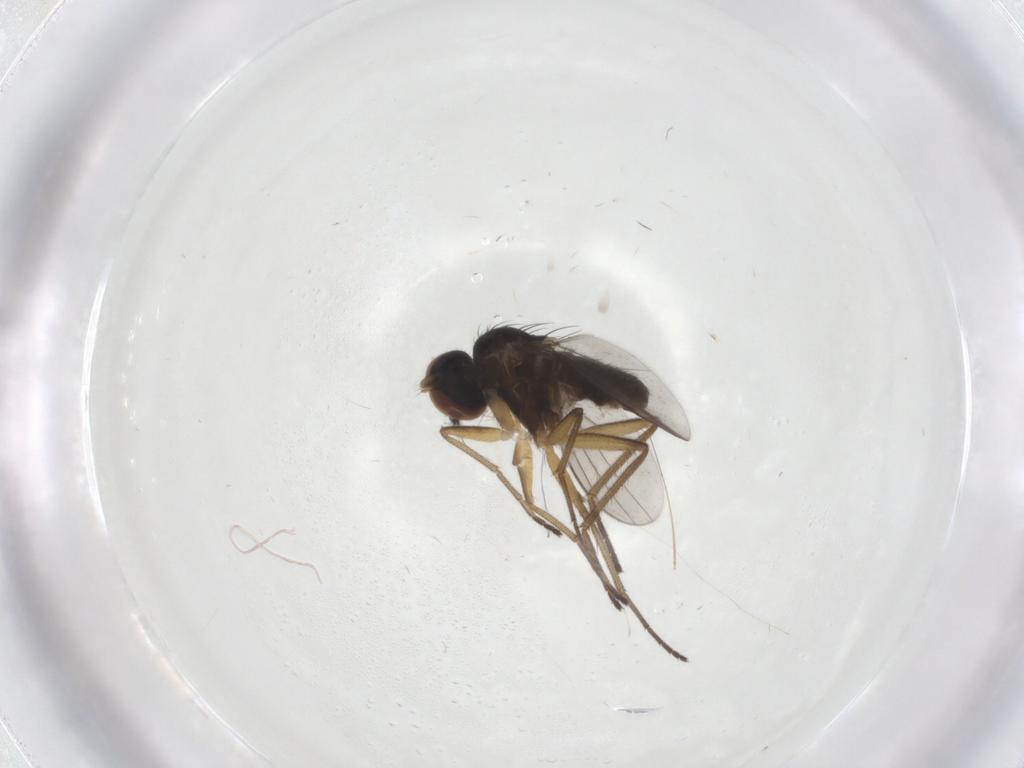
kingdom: Animalia
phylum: Arthropoda
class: Insecta
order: Diptera
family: Dolichopodidae
